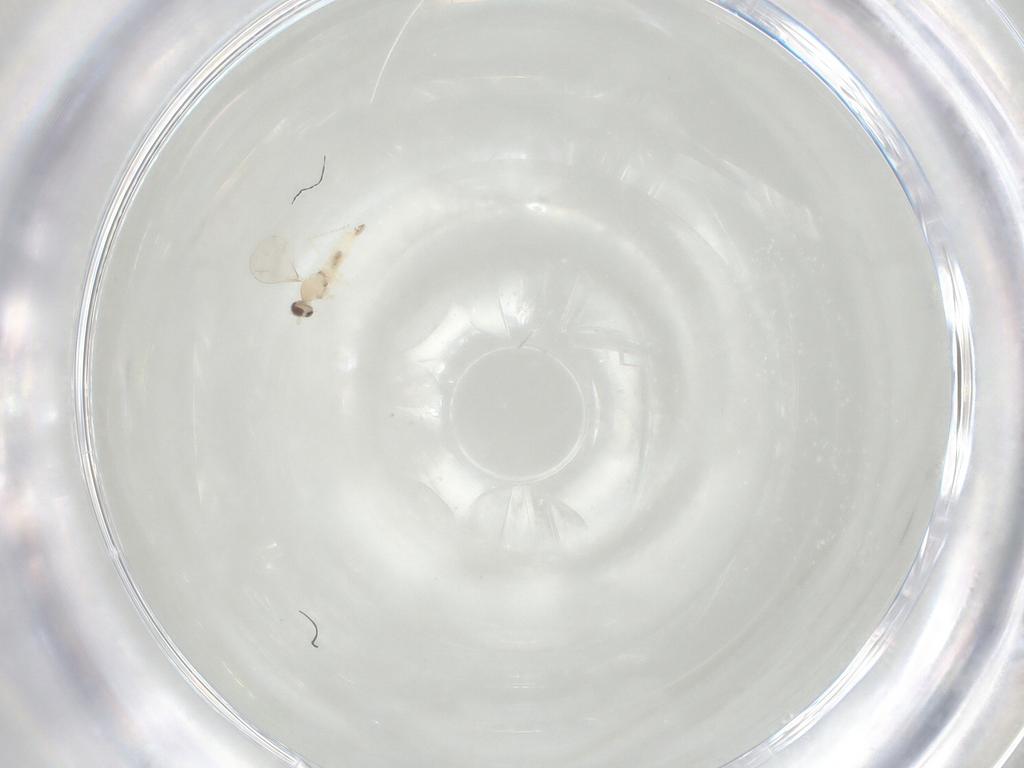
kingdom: Animalia
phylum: Arthropoda
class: Insecta
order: Diptera
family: Cecidomyiidae
